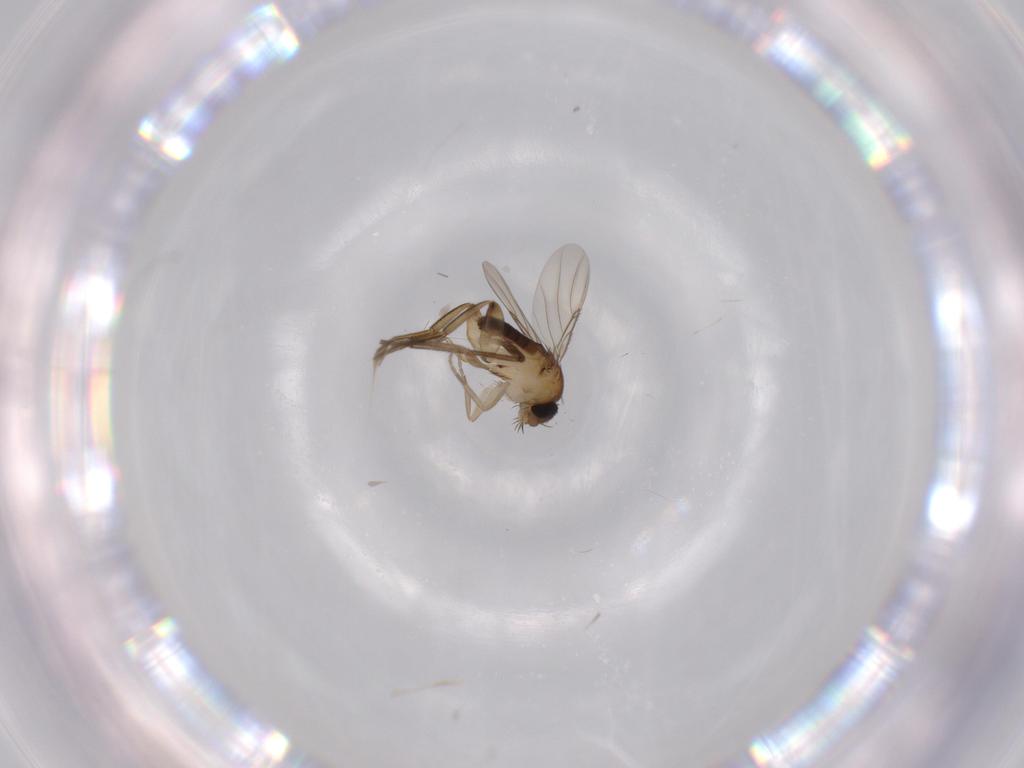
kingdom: Animalia
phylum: Arthropoda
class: Insecta
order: Diptera
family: Phoridae
